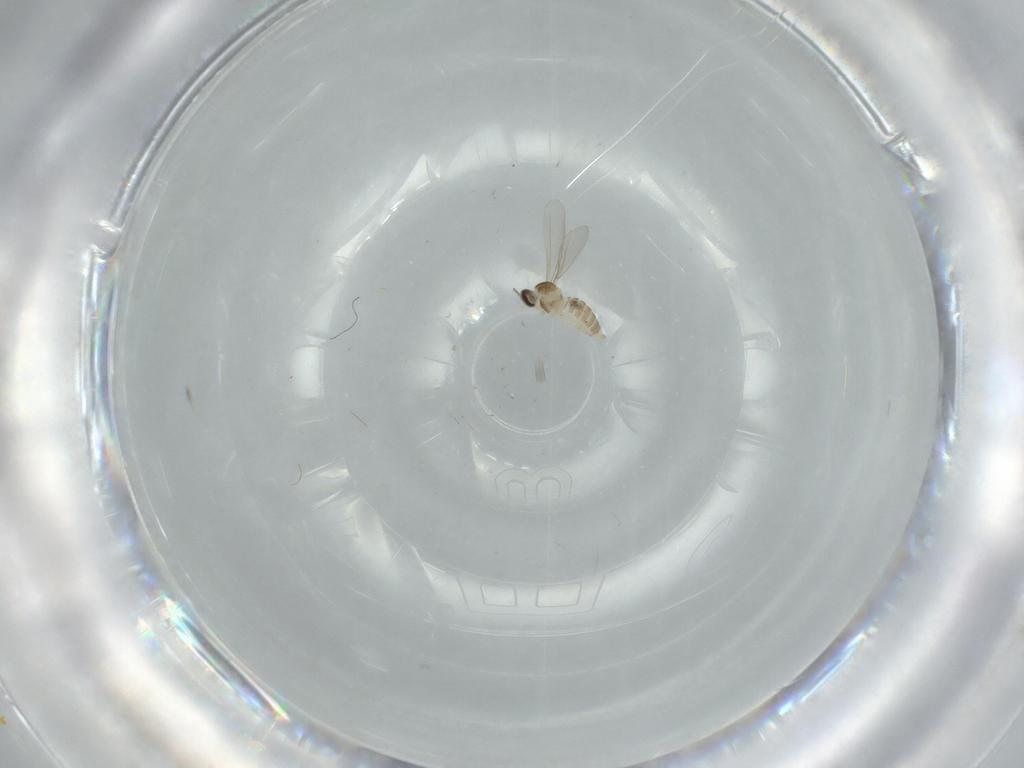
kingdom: Animalia
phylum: Arthropoda
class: Insecta
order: Diptera
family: Cecidomyiidae
